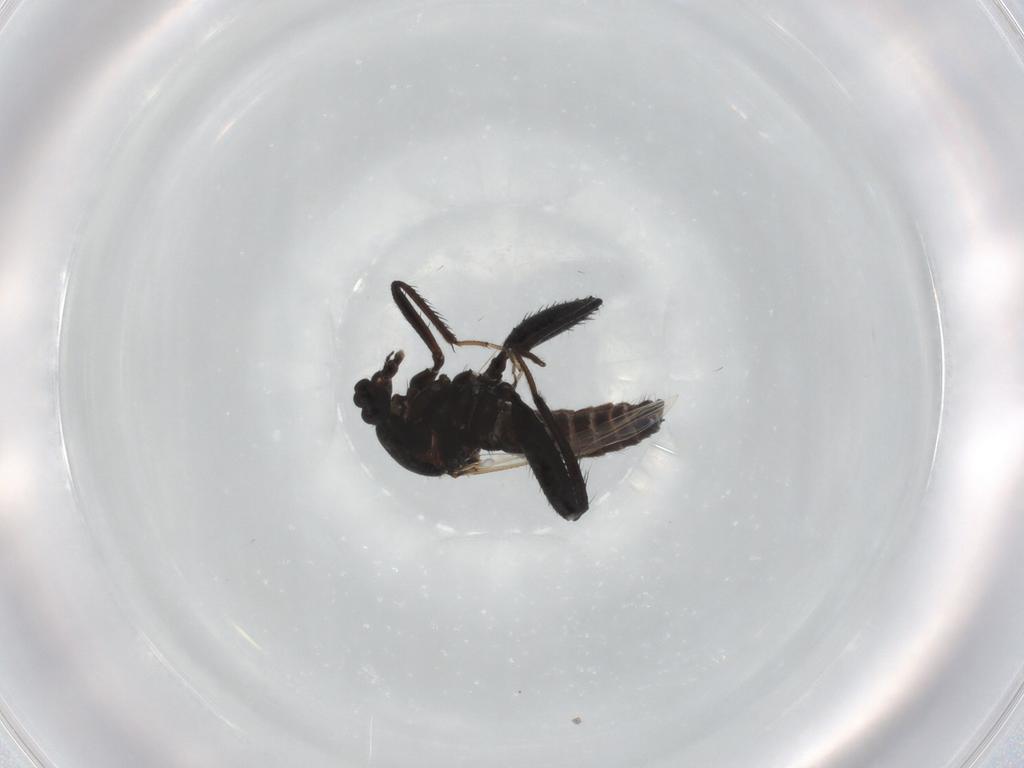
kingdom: Animalia
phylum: Arthropoda
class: Insecta
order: Diptera
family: Ceratopogonidae
